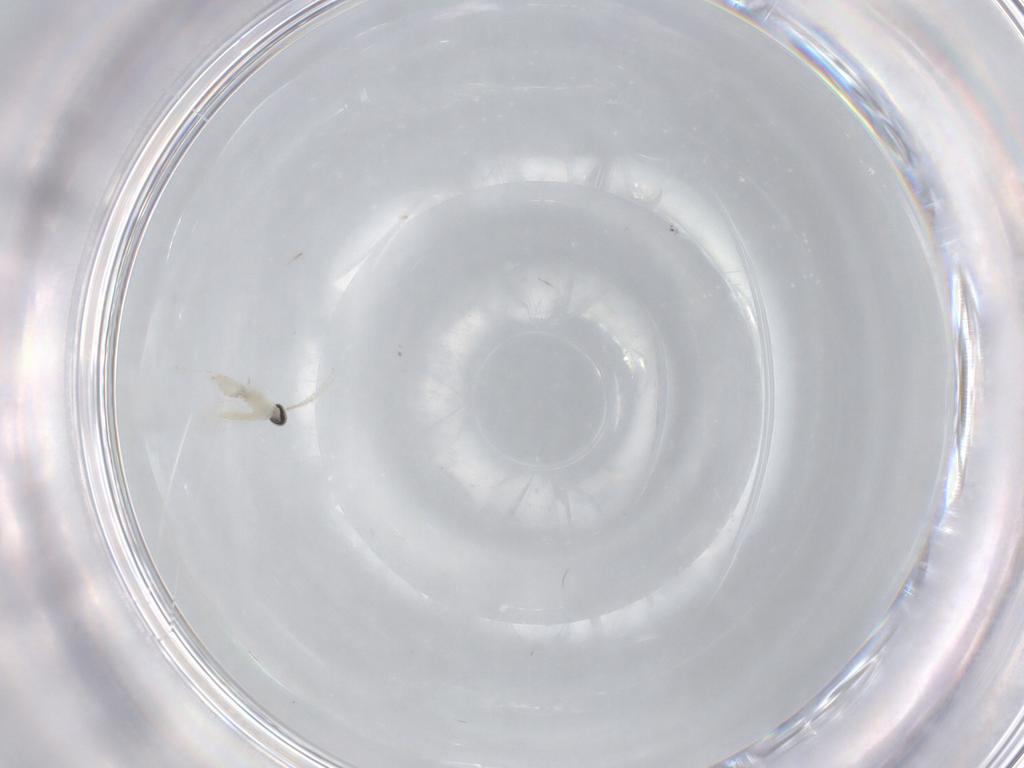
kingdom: Animalia
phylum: Arthropoda
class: Insecta
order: Diptera
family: Cecidomyiidae
